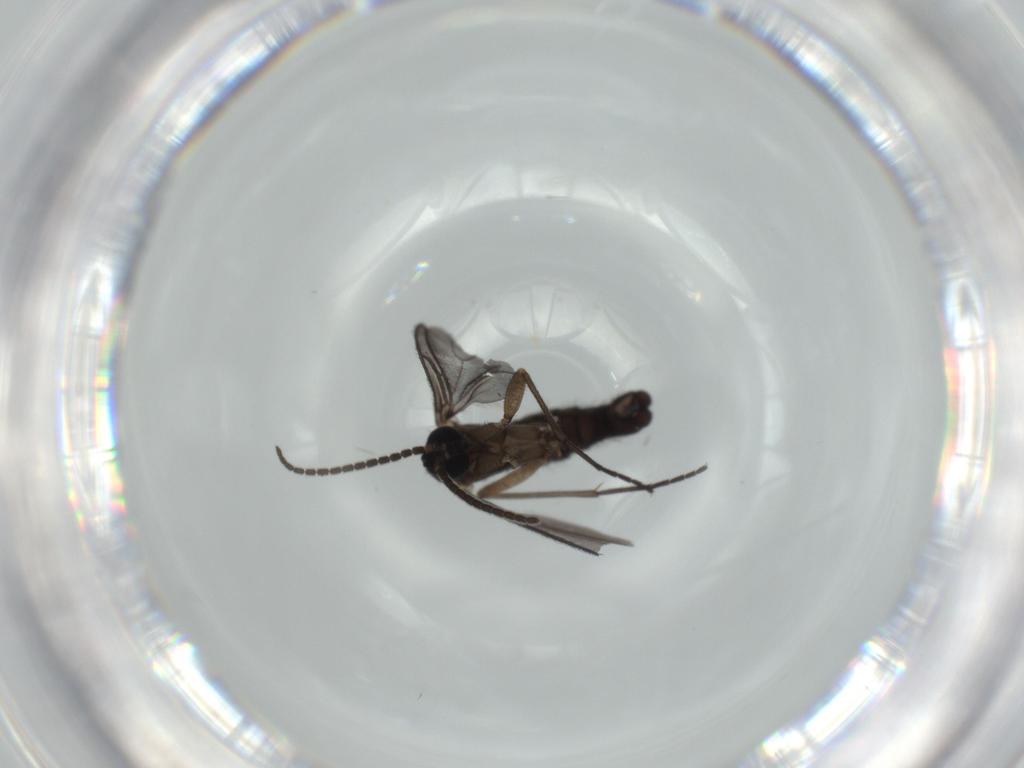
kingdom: Animalia
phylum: Arthropoda
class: Insecta
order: Diptera
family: Sciaridae
